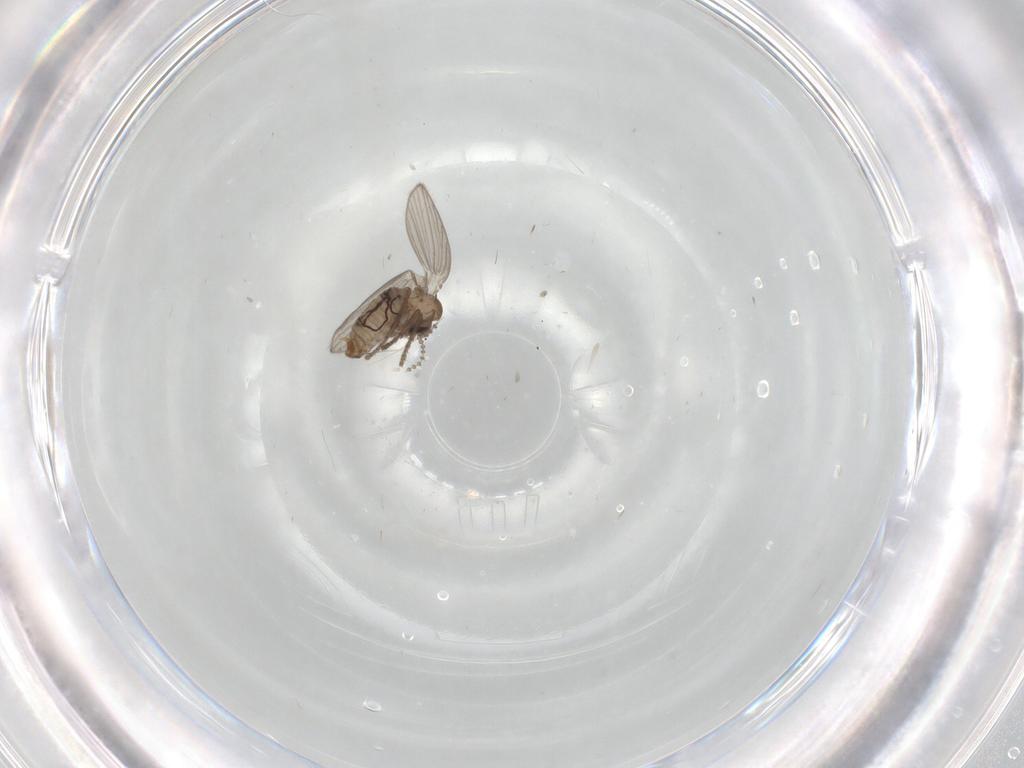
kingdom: Animalia
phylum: Arthropoda
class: Insecta
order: Diptera
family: Psychodidae
